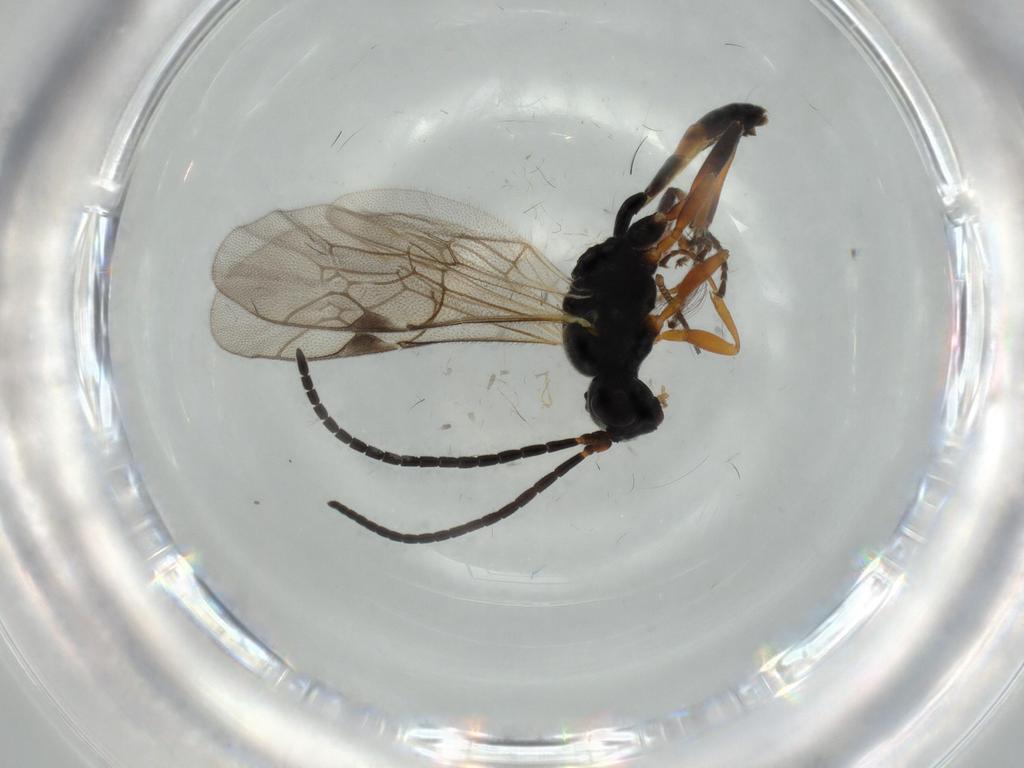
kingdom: Animalia
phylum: Arthropoda
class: Insecta
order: Hymenoptera
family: Ichneumonidae
